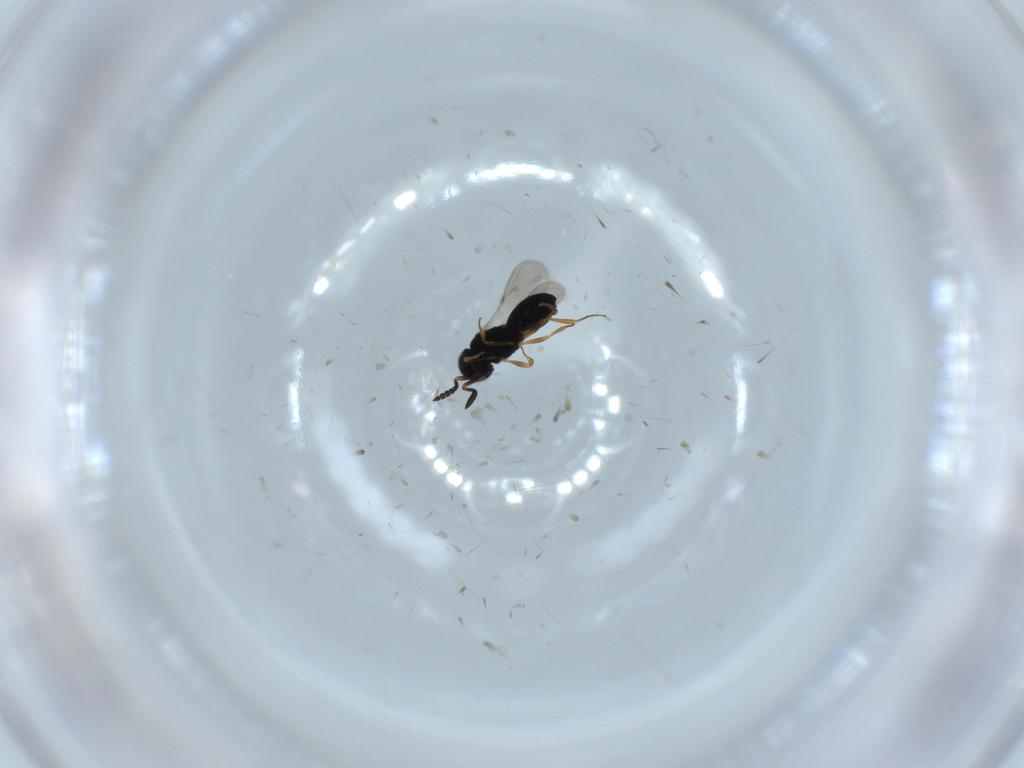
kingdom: Animalia
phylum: Arthropoda
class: Insecta
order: Hymenoptera
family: Scelionidae
